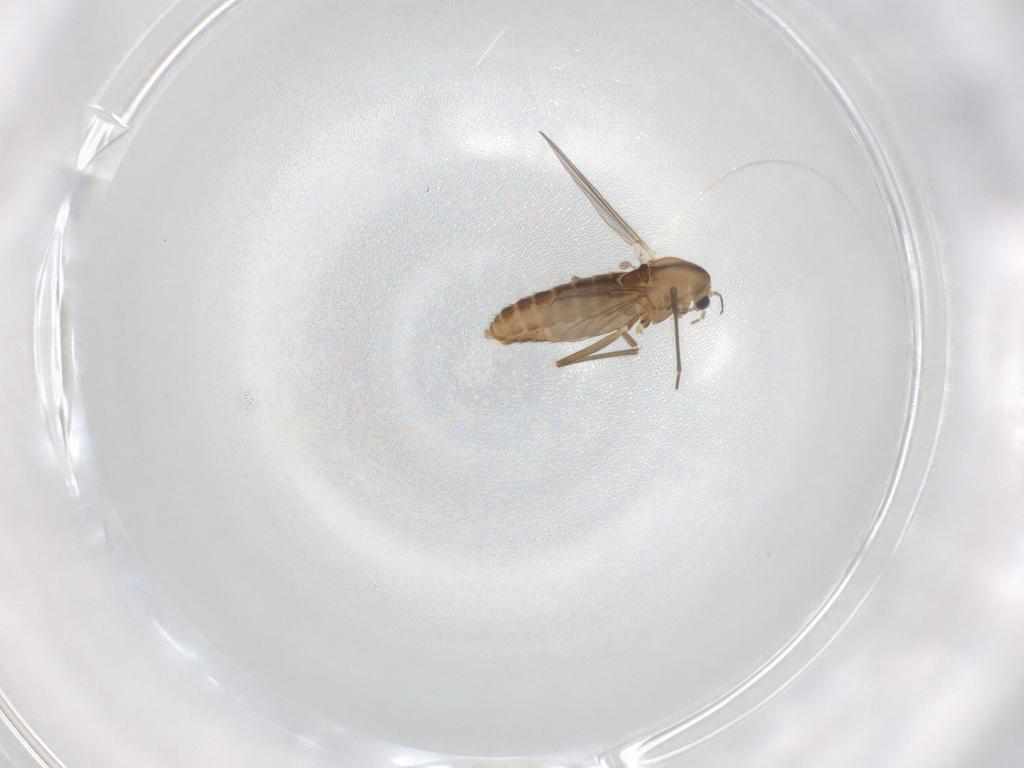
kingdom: Animalia
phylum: Arthropoda
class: Insecta
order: Diptera
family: Chironomidae
